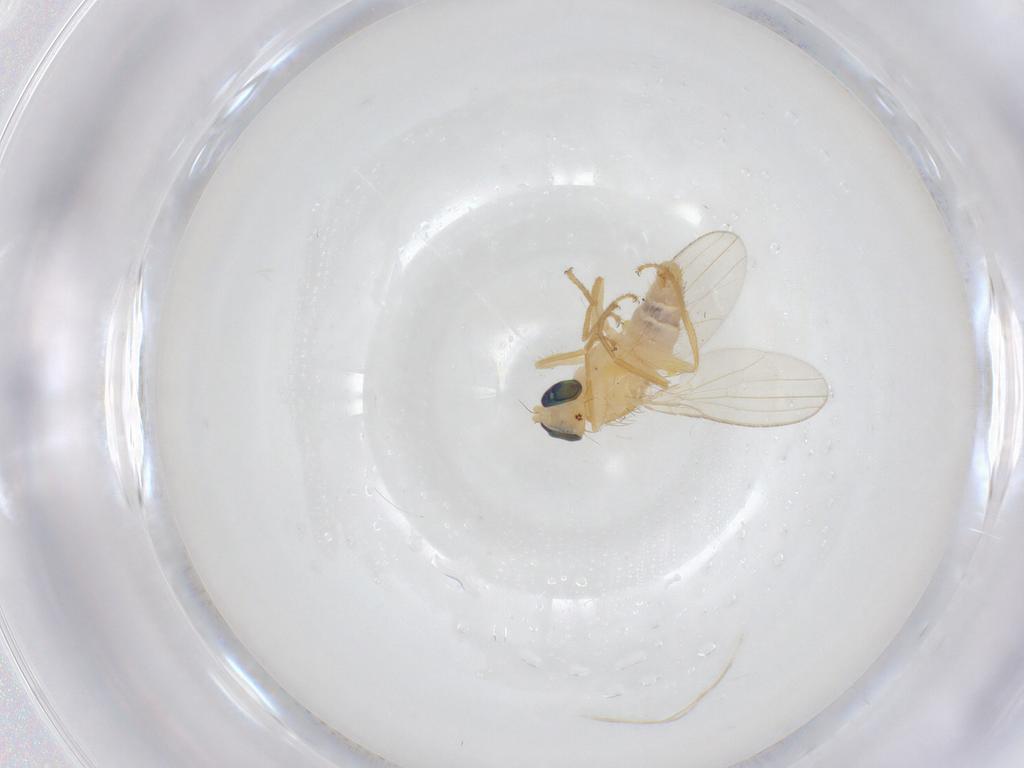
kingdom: Animalia
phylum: Arthropoda
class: Insecta
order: Diptera
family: Chyromyidae
